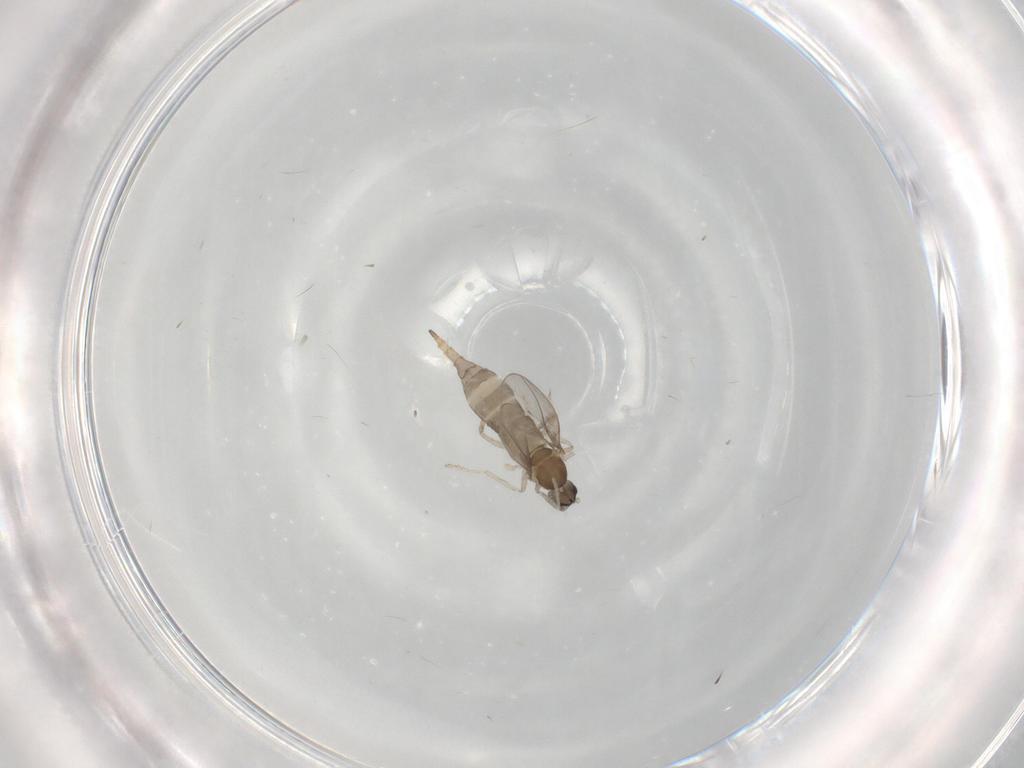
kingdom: Animalia
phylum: Arthropoda
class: Insecta
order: Diptera
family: Cecidomyiidae
